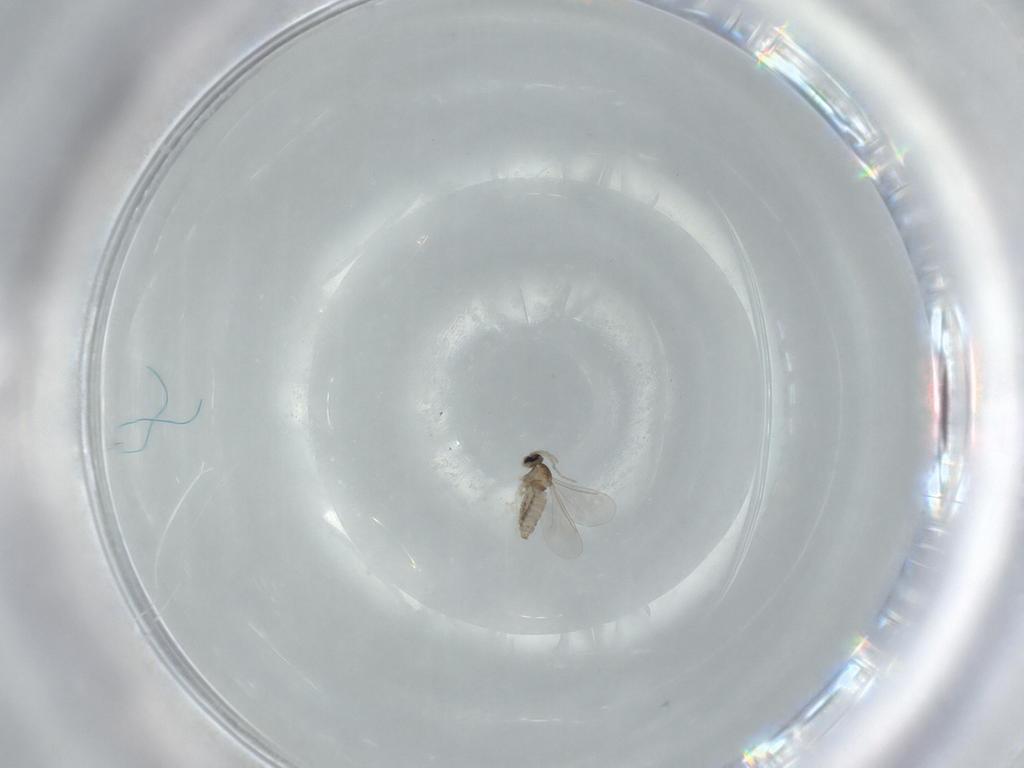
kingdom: Animalia
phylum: Arthropoda
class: Insecta
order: Diptera
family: Cecidomyiidae
